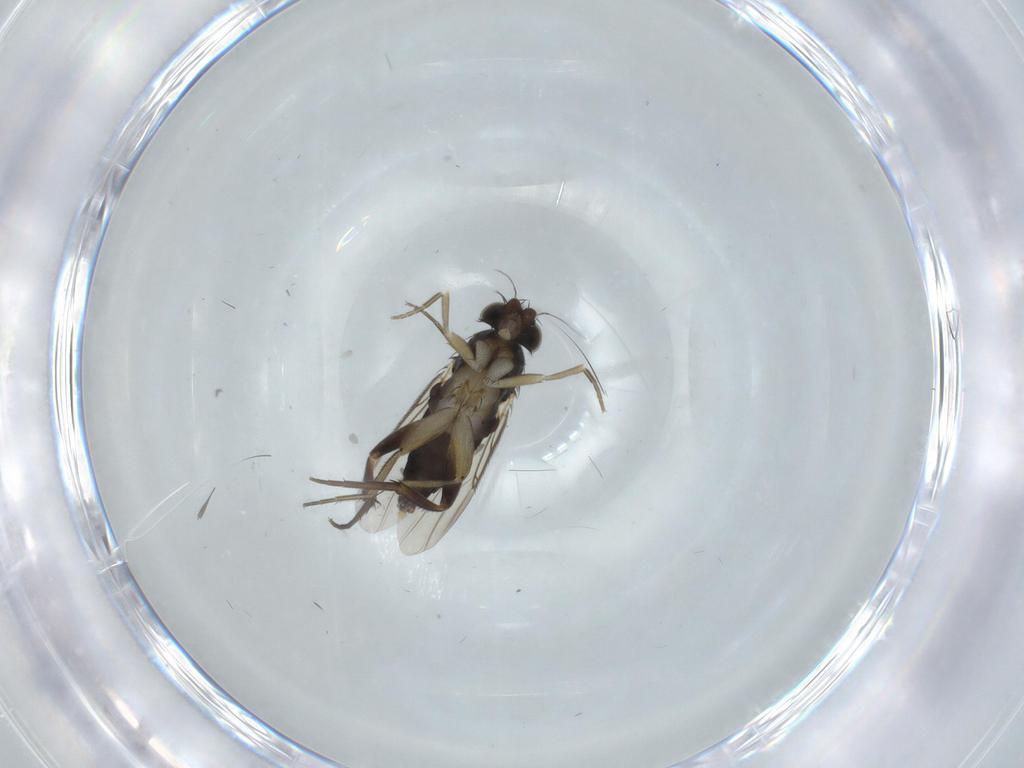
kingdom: Animalia
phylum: Arthropoda
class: Insecta
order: Diptera
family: Phoridae
